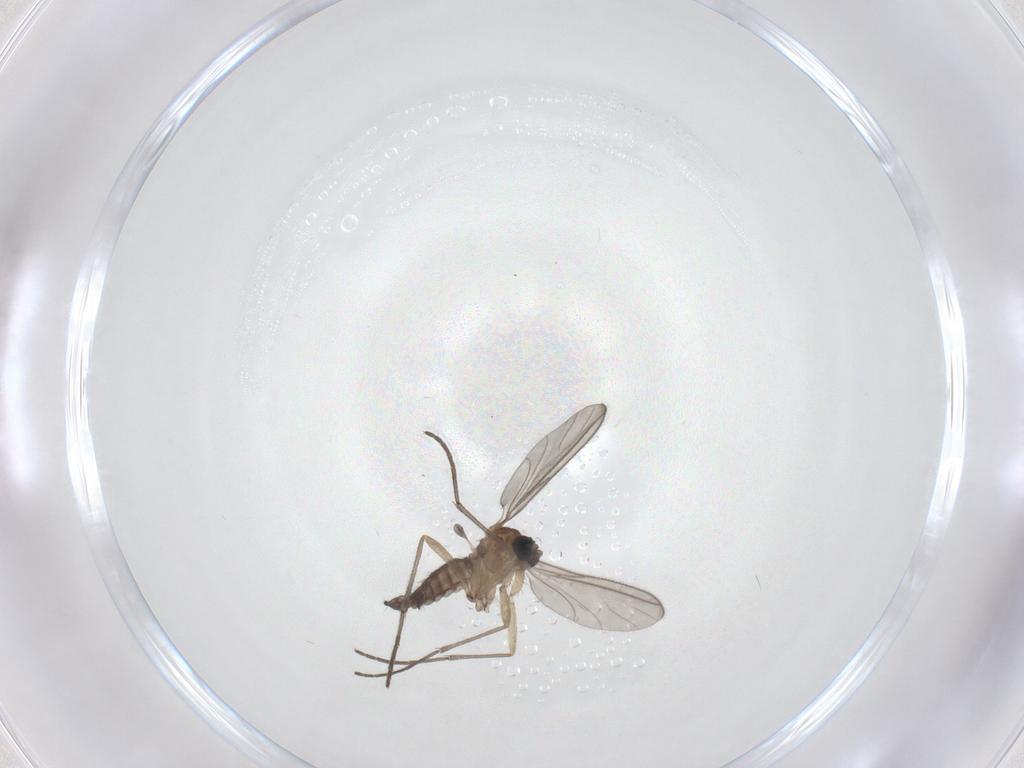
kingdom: Animalia
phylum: Arthropoda
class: Insecta
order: Diptera
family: Sciaridae
